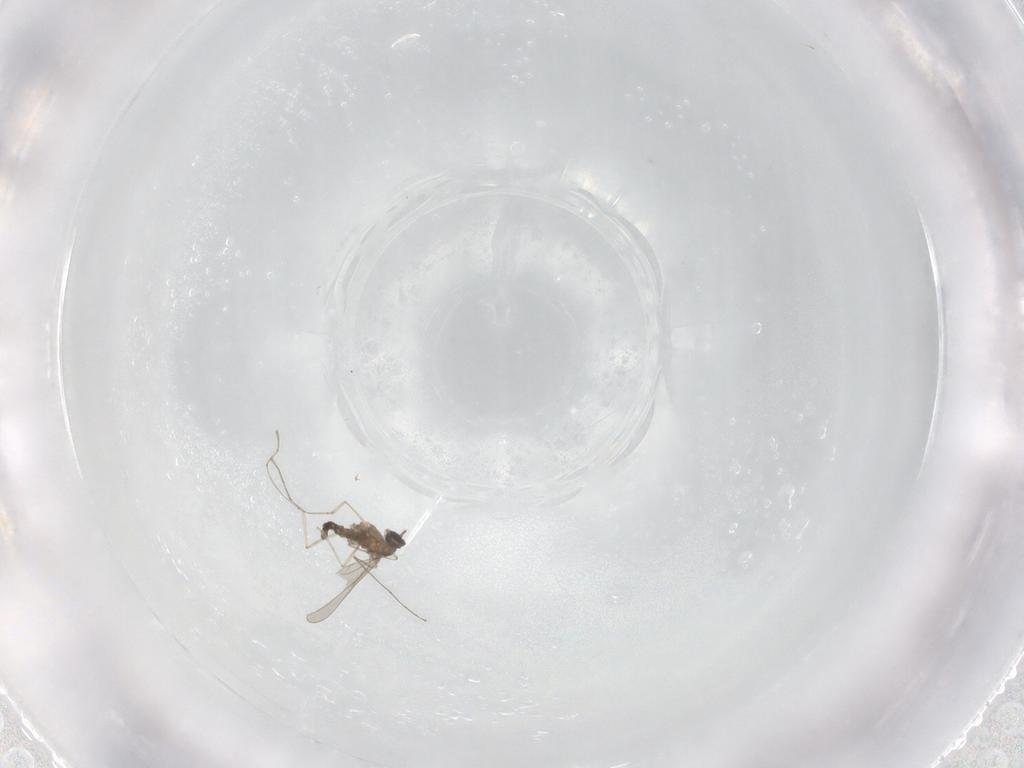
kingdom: Animalia
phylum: Arthropoda
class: Insecta
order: Diptera
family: Cecidomyiidae
